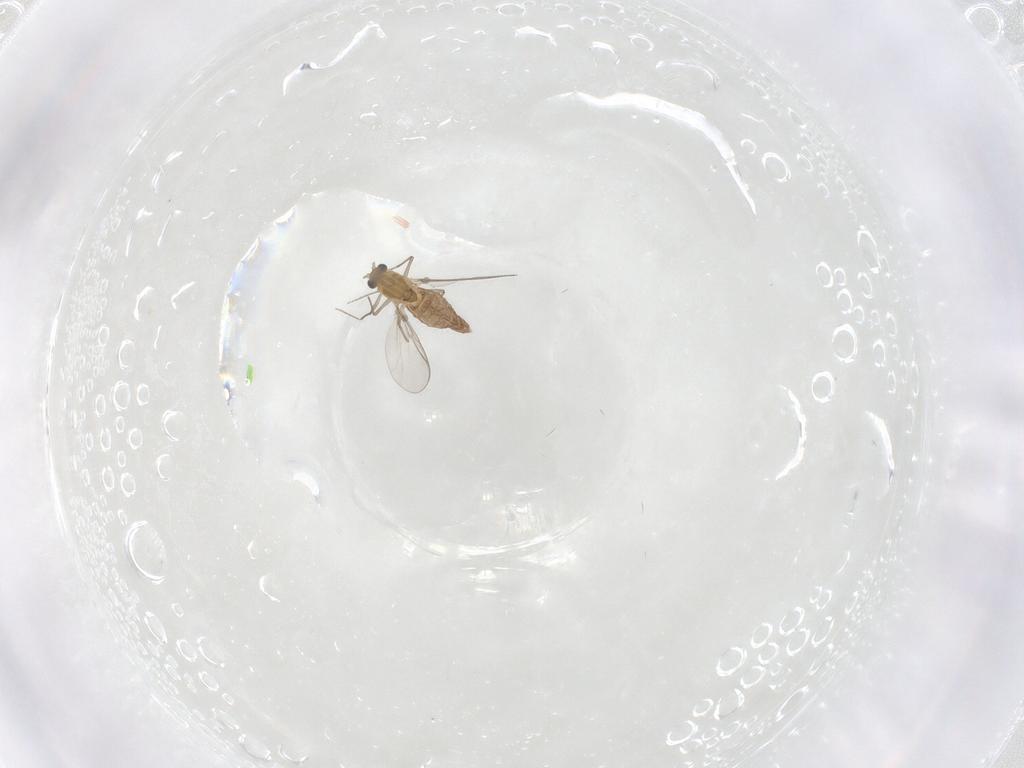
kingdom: Animalia
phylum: Arthropoda
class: Insecta
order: Diptera
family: Chironomidae
